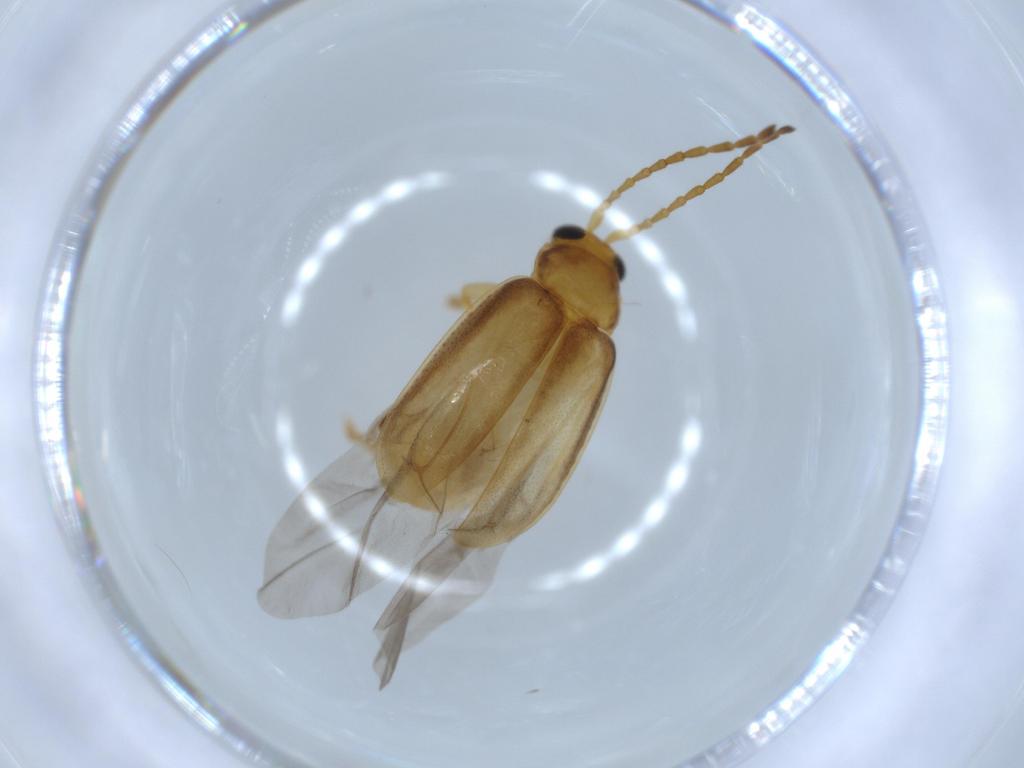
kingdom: Animalia
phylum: Arthropoda
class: Insecta
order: Coleoptera
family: Chrysomelidae
